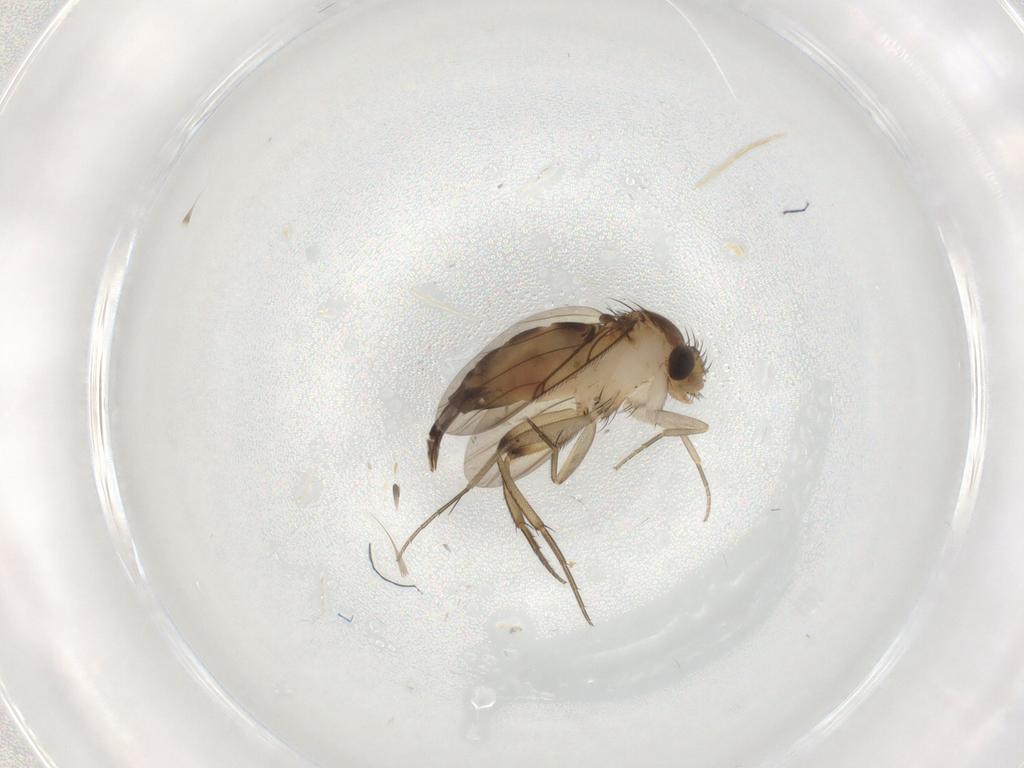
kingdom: Animalia
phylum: Arthropoda
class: Insecta
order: Diptera
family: Phoridae
